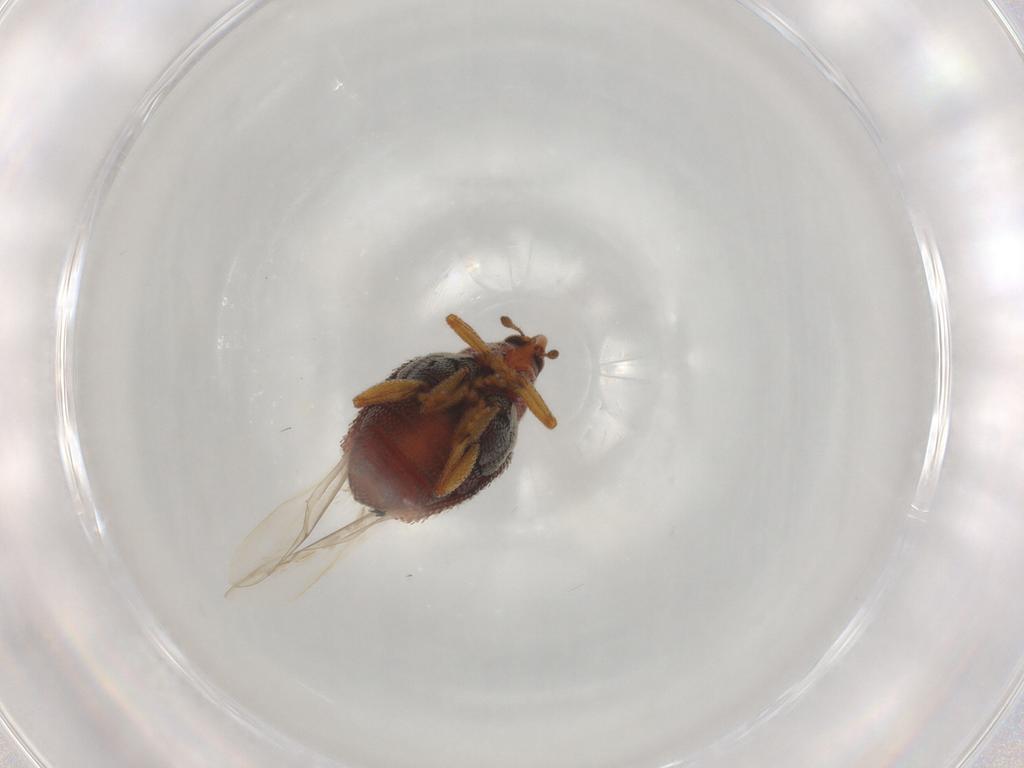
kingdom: Animalia
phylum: Arthropoda
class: Insecta
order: Coleoptera
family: Curculionidae
